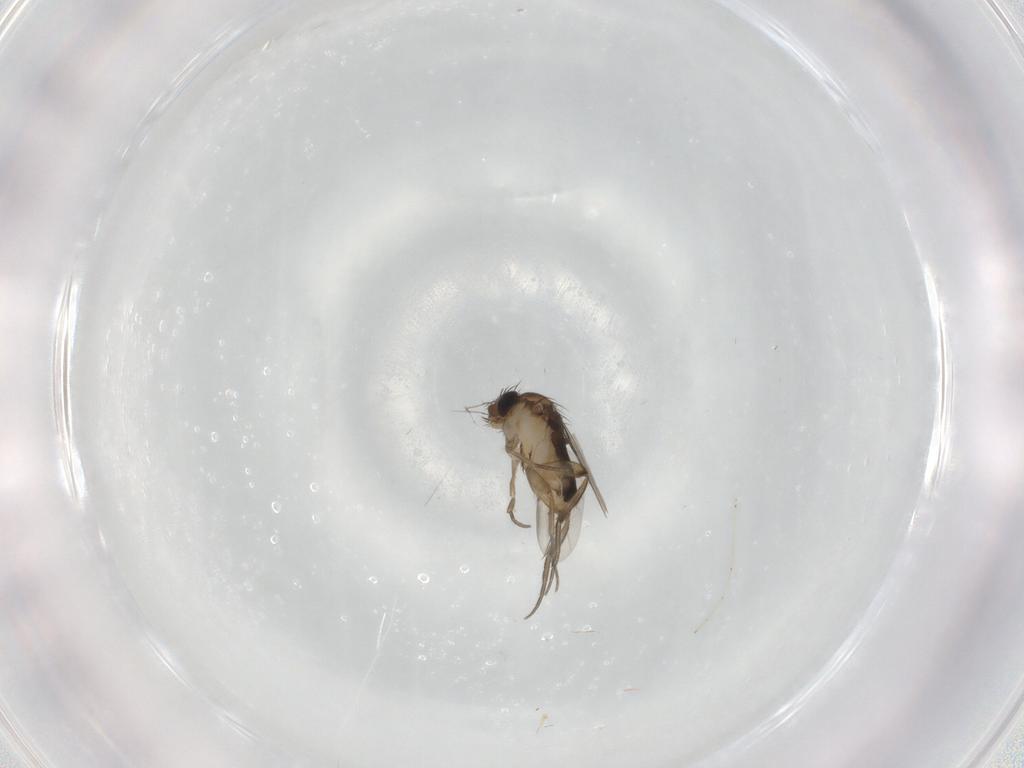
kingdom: Animalia
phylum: Arthropoda
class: Insecta
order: Diptera
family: Phoridae
